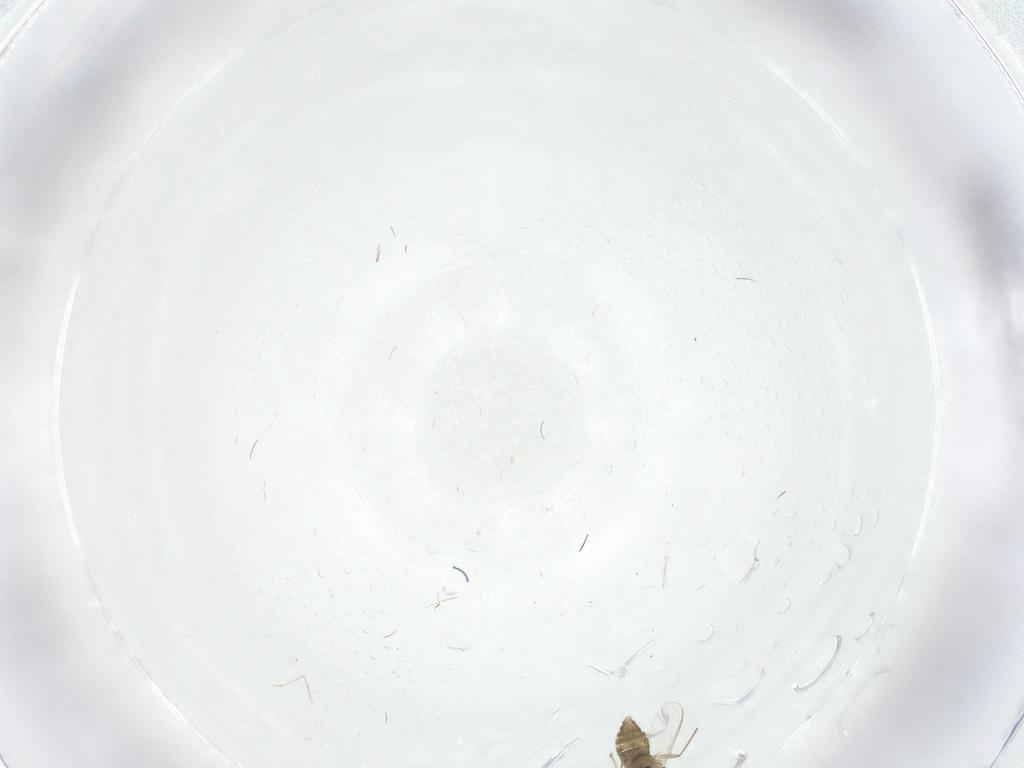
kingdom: Animalia
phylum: Arthropoda
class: Insecta
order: Diptera
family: Chironomidae
